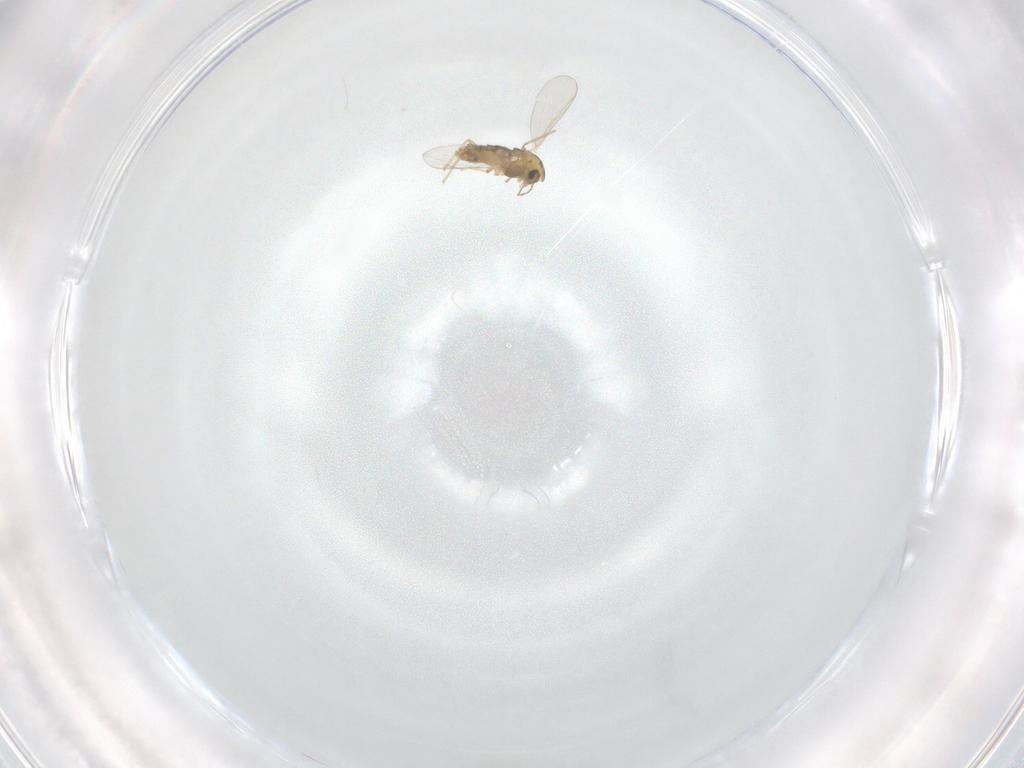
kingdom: Animalia
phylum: Arthropoda
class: Insecta
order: Diptera
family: Chironomidae
